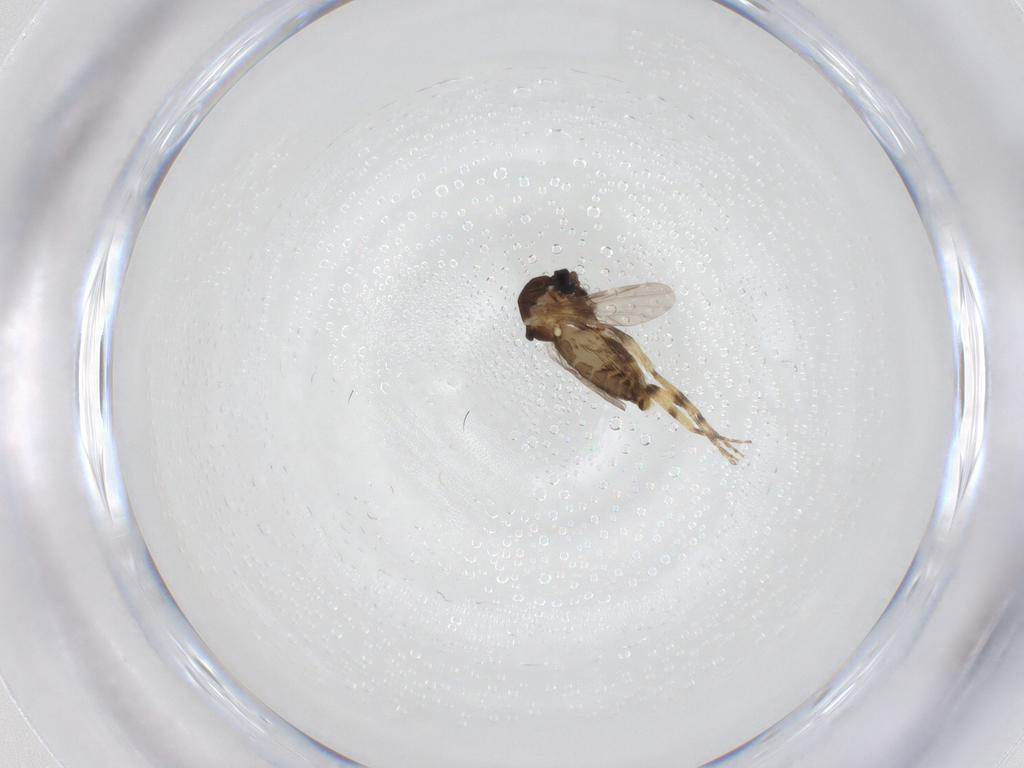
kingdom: Animalia
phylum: Arthropoda
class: Insecta
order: Diptera
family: Ceratopogonidae
